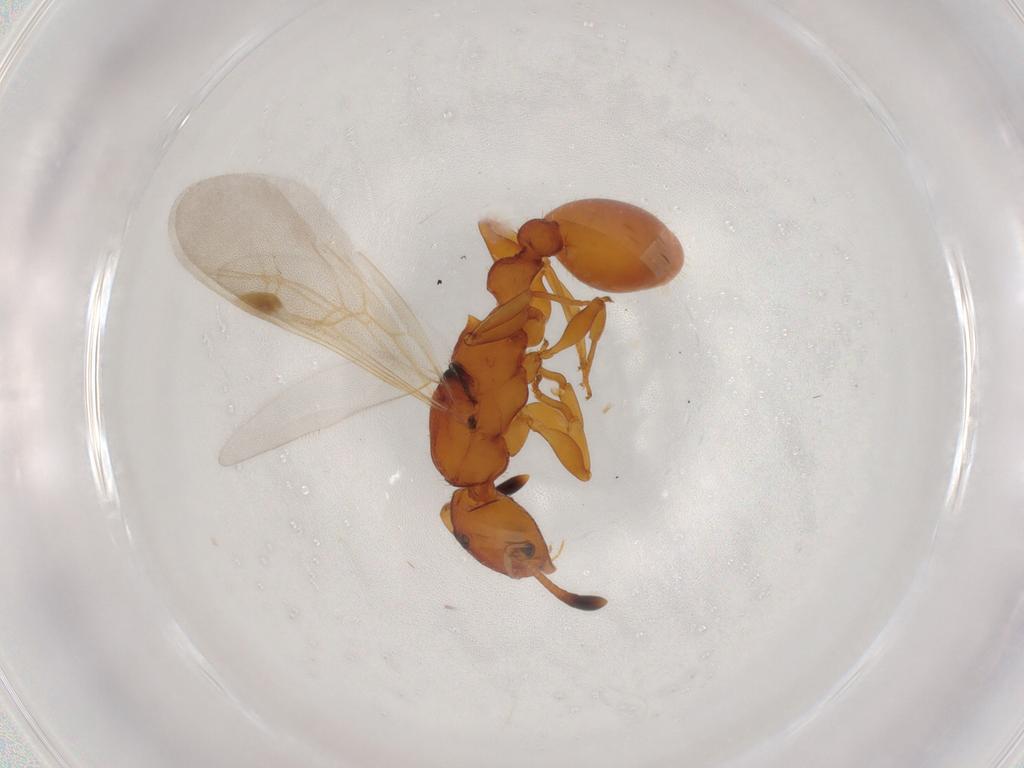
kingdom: Animalia
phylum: Arthropoda
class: Insecta
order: Hymenoptera
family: Formicidae
